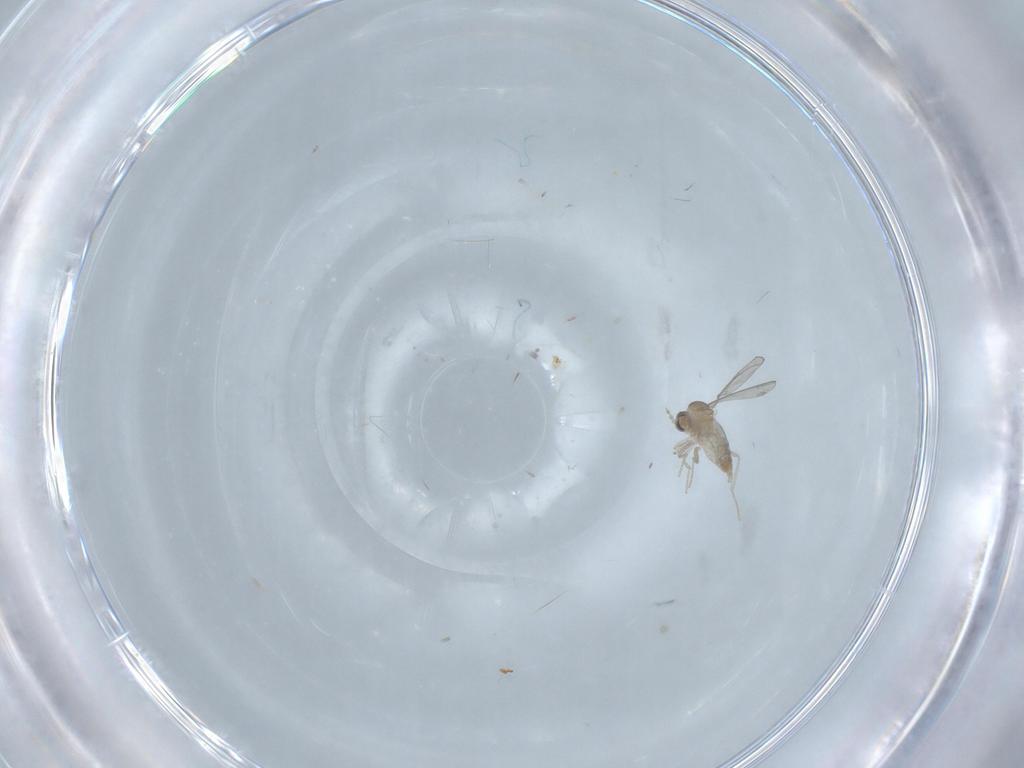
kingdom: Animalia
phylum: Arthropoda
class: Insecta
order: Diptera
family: Sciaridae
